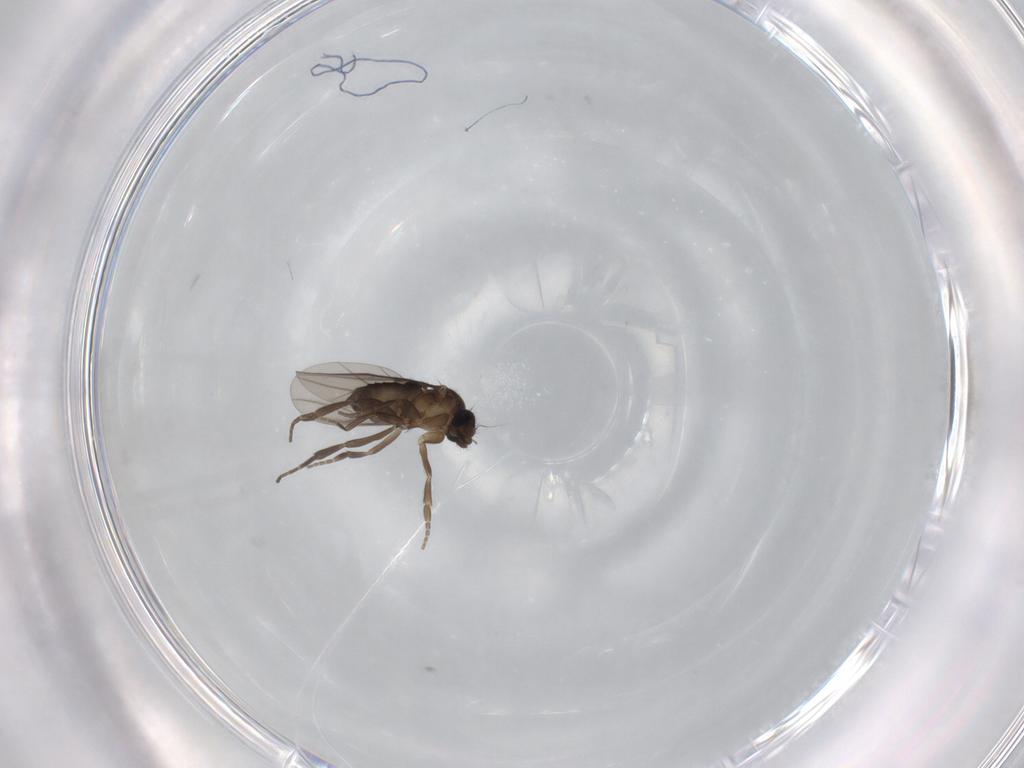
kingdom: Animalia
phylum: Arthropoda
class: Insecta
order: Diptera
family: Phoridae
